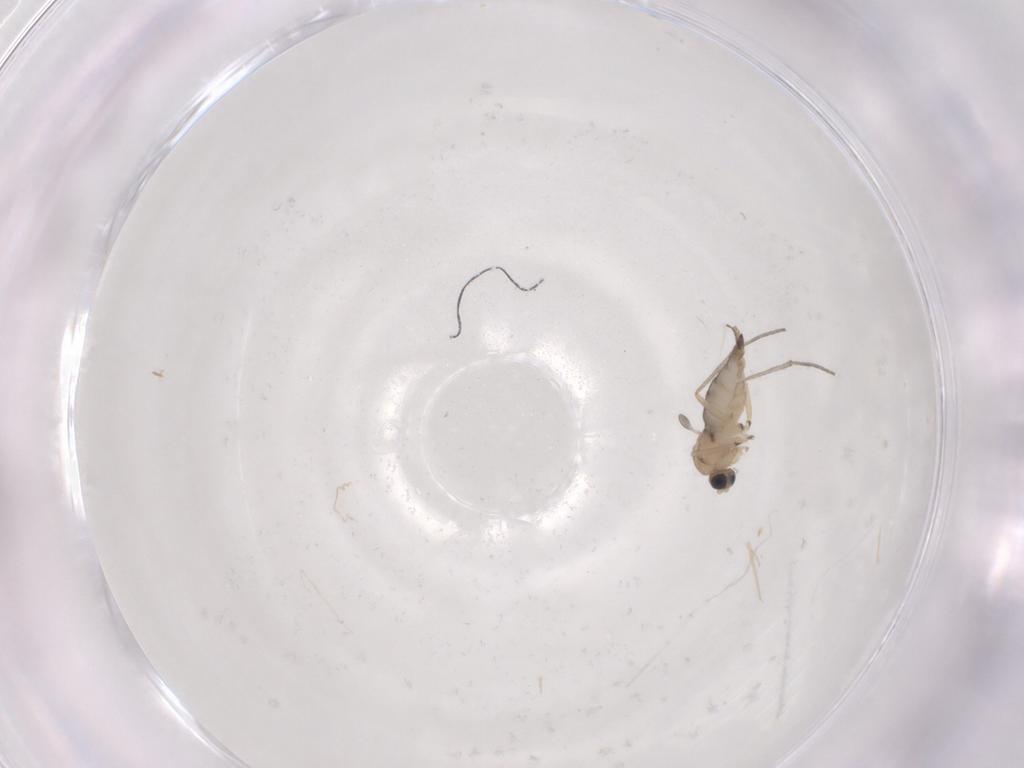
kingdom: Animalia
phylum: Arthropoda
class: Insecta
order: Diptera
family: Sciaridae
